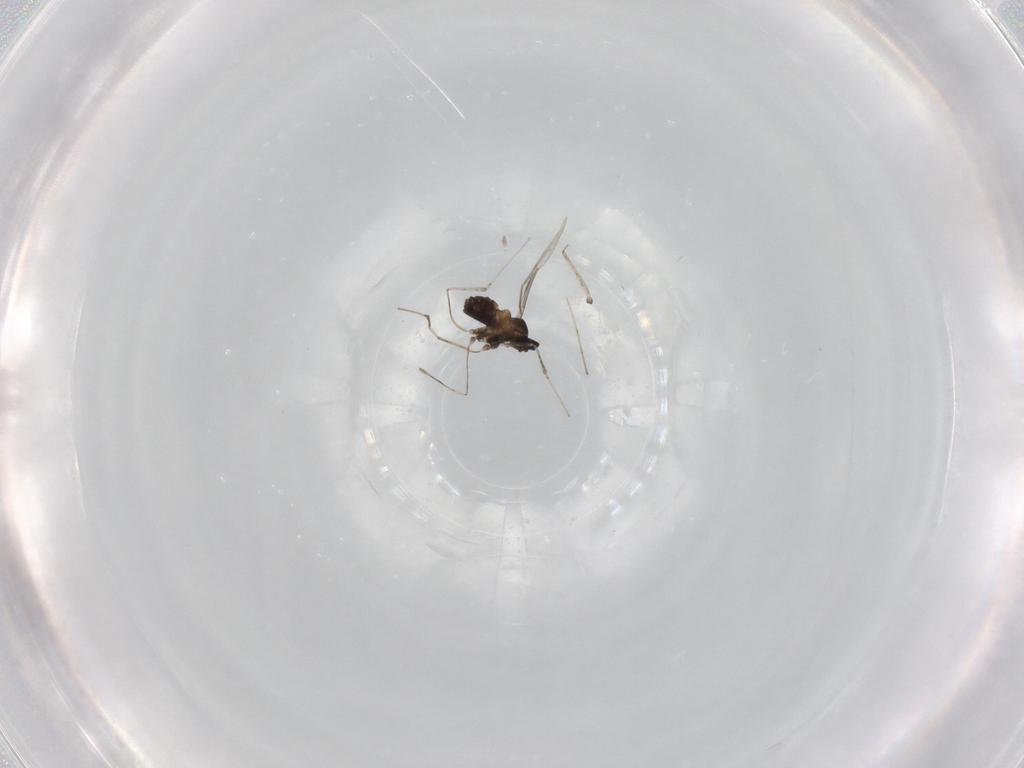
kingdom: Animalia
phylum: Arthropoda
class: Insecta
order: Diptera
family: Cecidomyiidae
